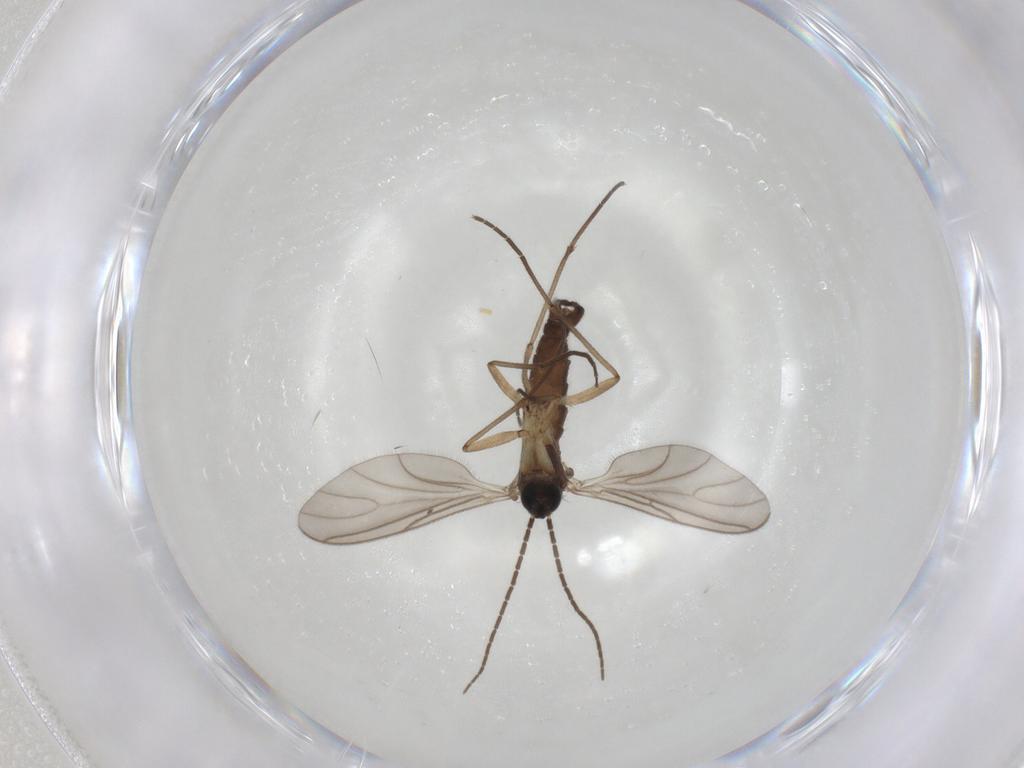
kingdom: Animalia
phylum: Arthropoda
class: Insecta
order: Diptera
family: Sciaridae
